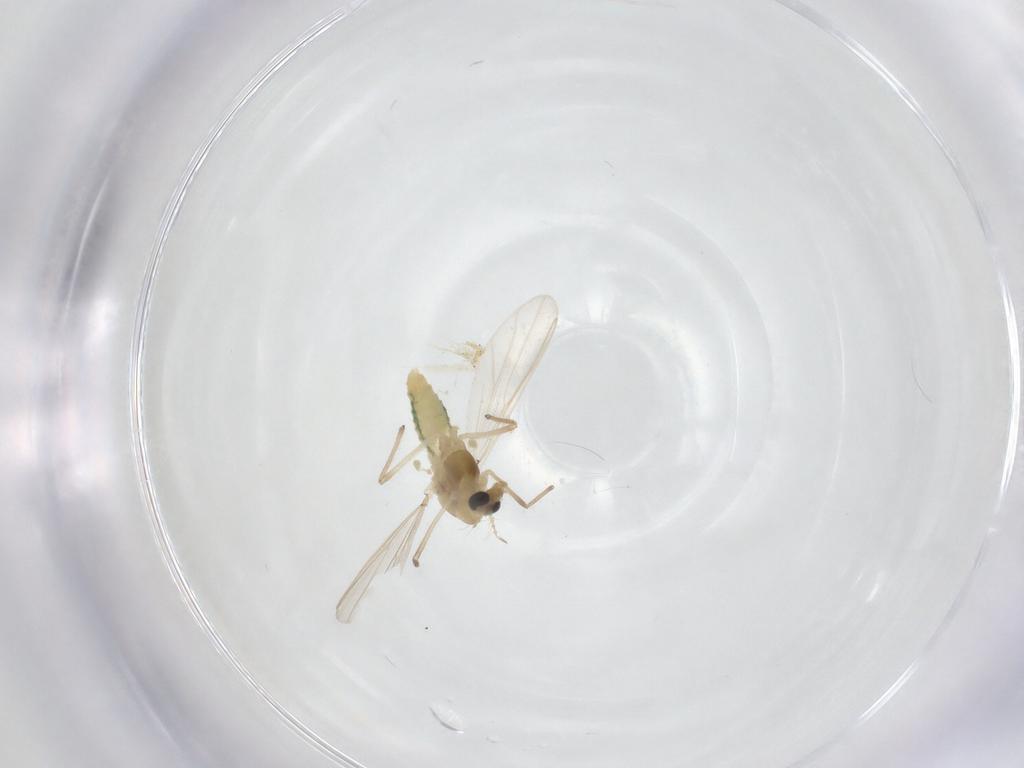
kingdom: Animalia
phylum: Arthropoda
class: Insecta
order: Diptera
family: Chironomidae
